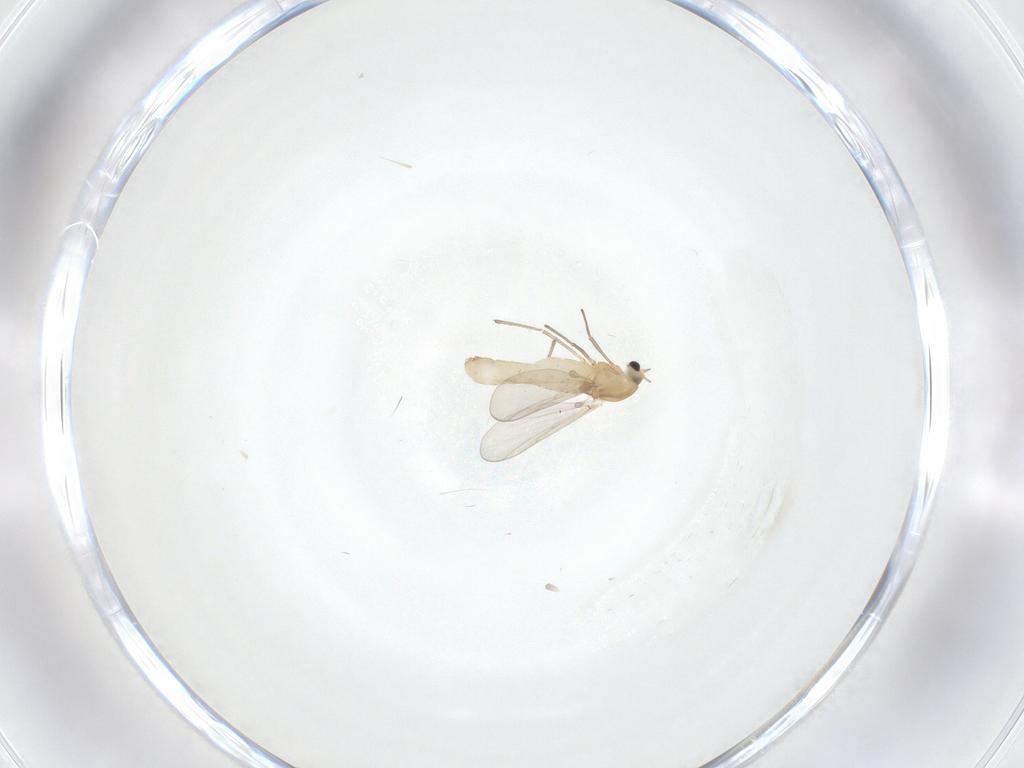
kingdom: Animalia
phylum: Arthropoda
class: Insecta
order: Diptera
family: Chironomidae
